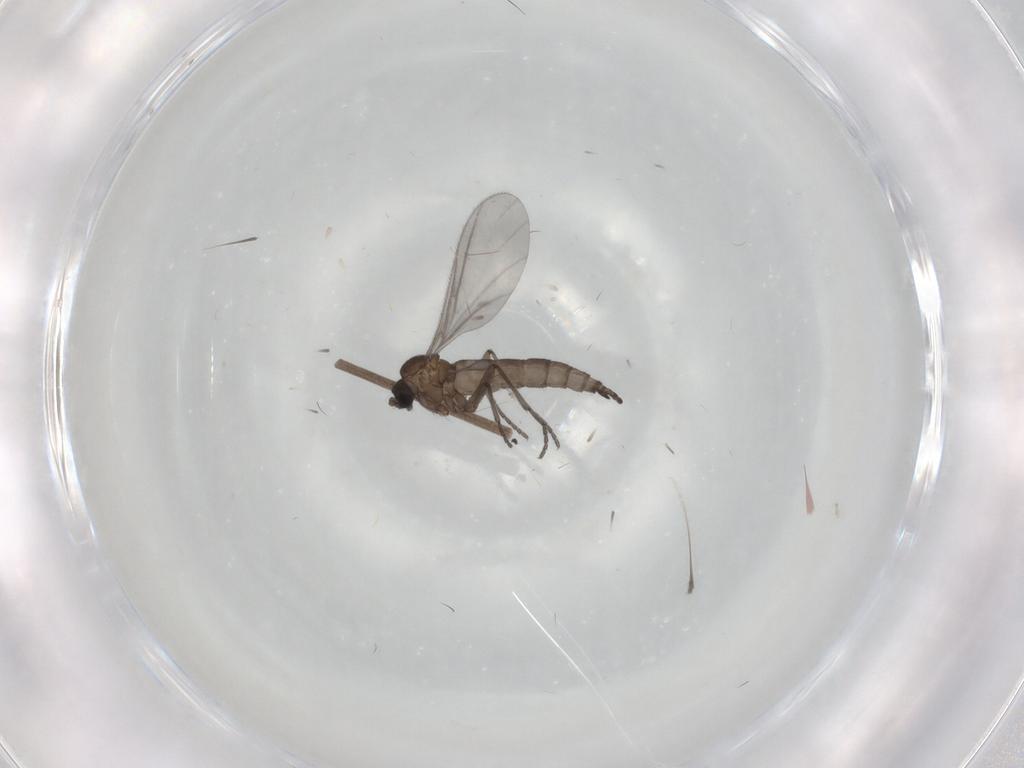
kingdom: Animalia
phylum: Arthropoda
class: Insecta
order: Diptera
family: Sciaridae
